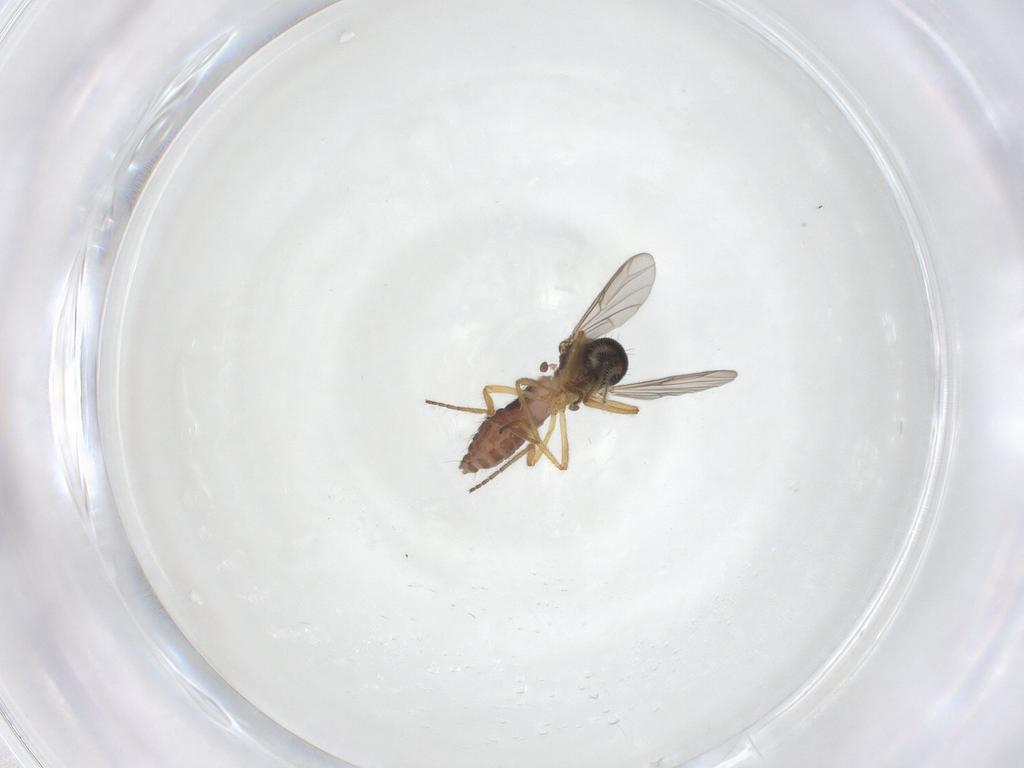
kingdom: Animalia
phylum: Arthropoda
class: Insecta
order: Diptera
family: Ceratopogonidae
